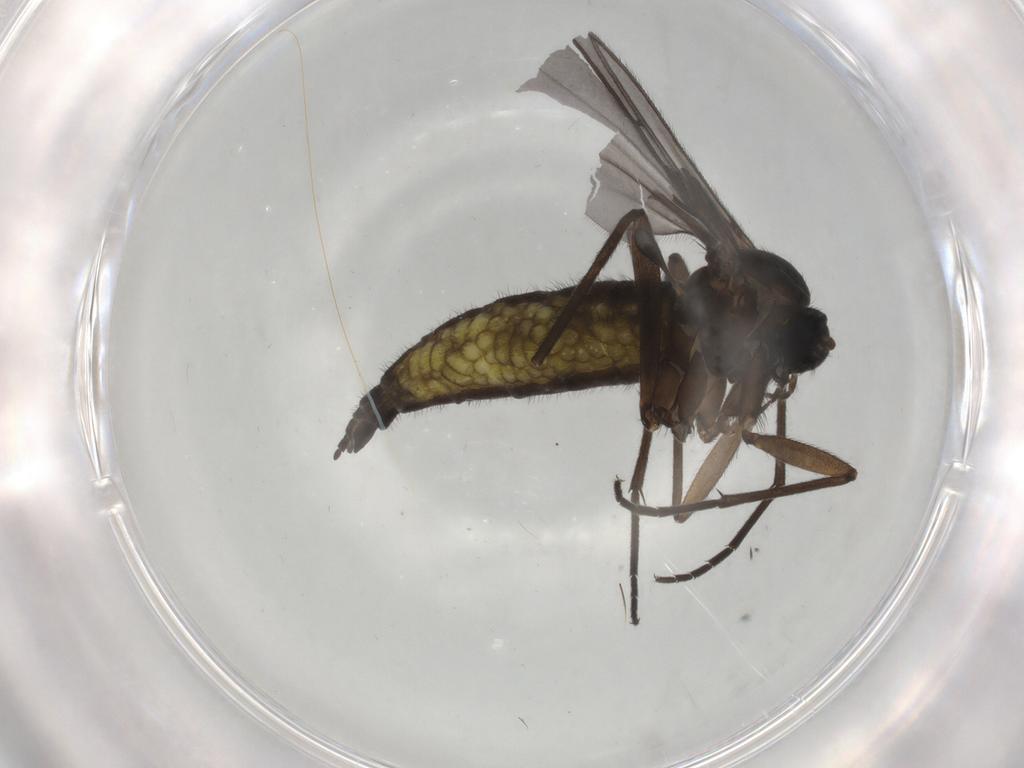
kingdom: Animalia
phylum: Arthropoda
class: Insecta
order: Diptera
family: Sciaridae
